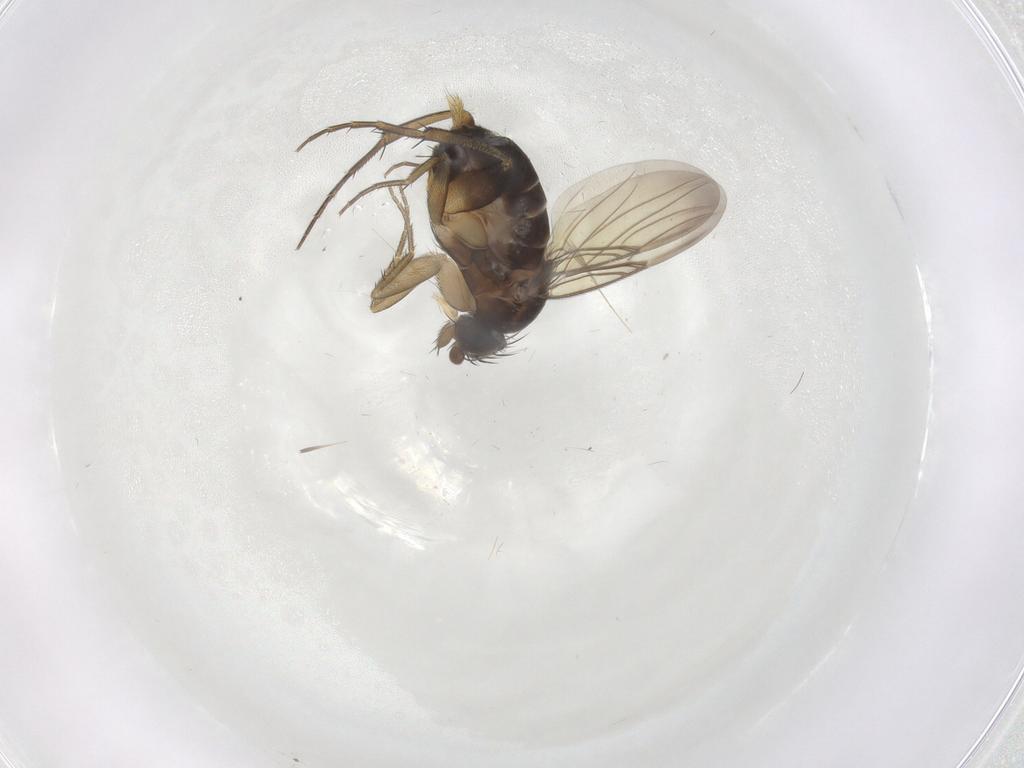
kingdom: Animalia
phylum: Arthropoda
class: Insecta
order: Diptera
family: Phoridae
